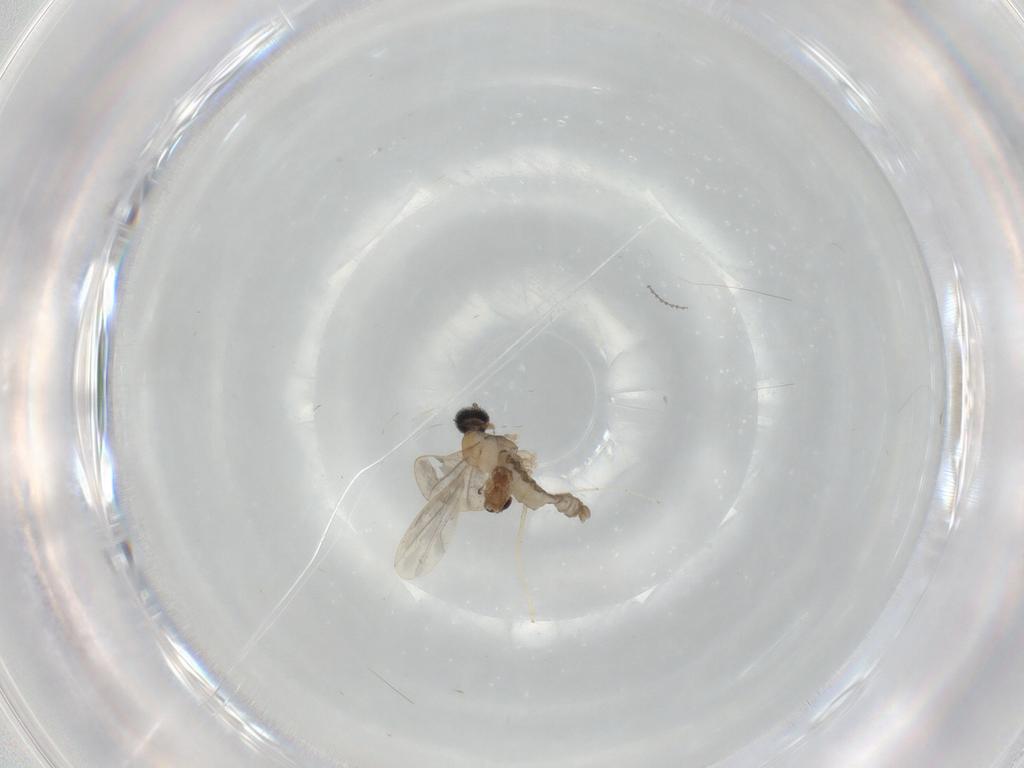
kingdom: Animalia
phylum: Arthropoda
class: Insecta
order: Diptera
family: Chironomidae
